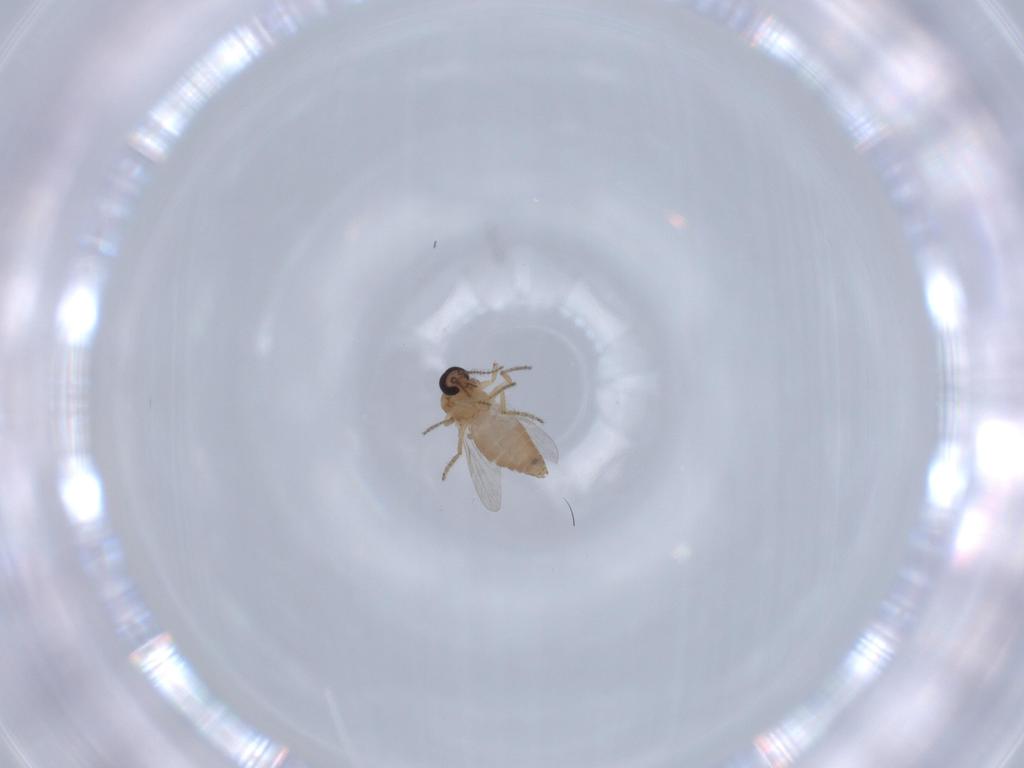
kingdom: Animalia
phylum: Arthropoda
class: Insecta
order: Diptera
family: Ceratopogonidae
